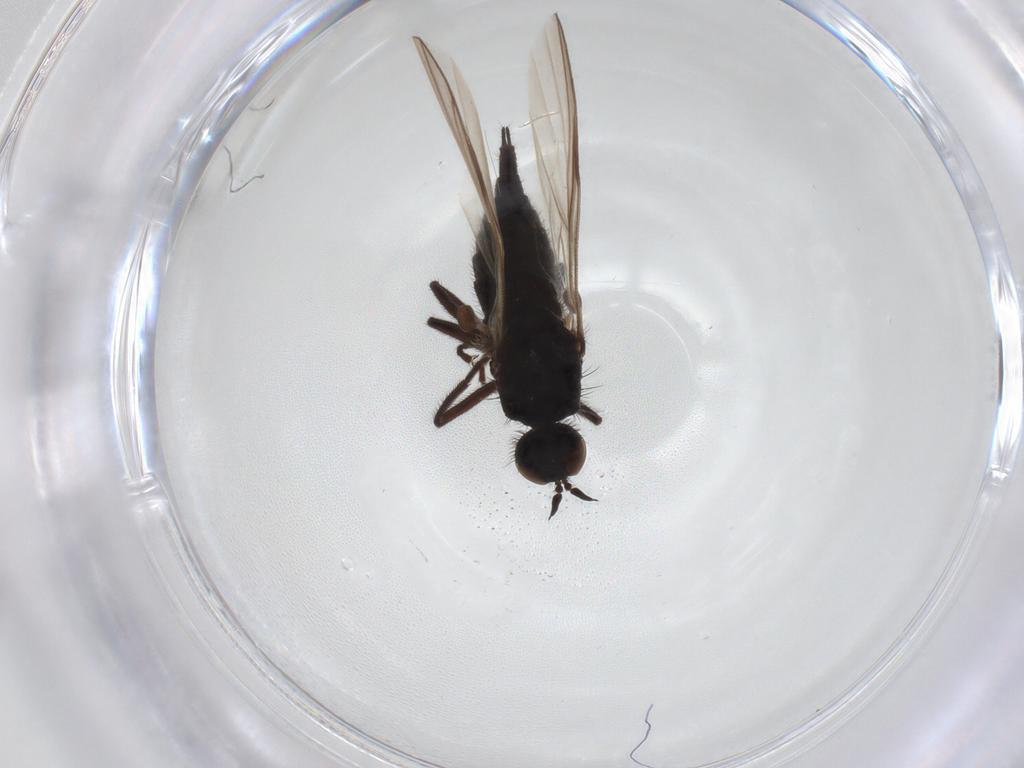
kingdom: Animalia
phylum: Arthropoda
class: Insecta
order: Diptera
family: Empididae
